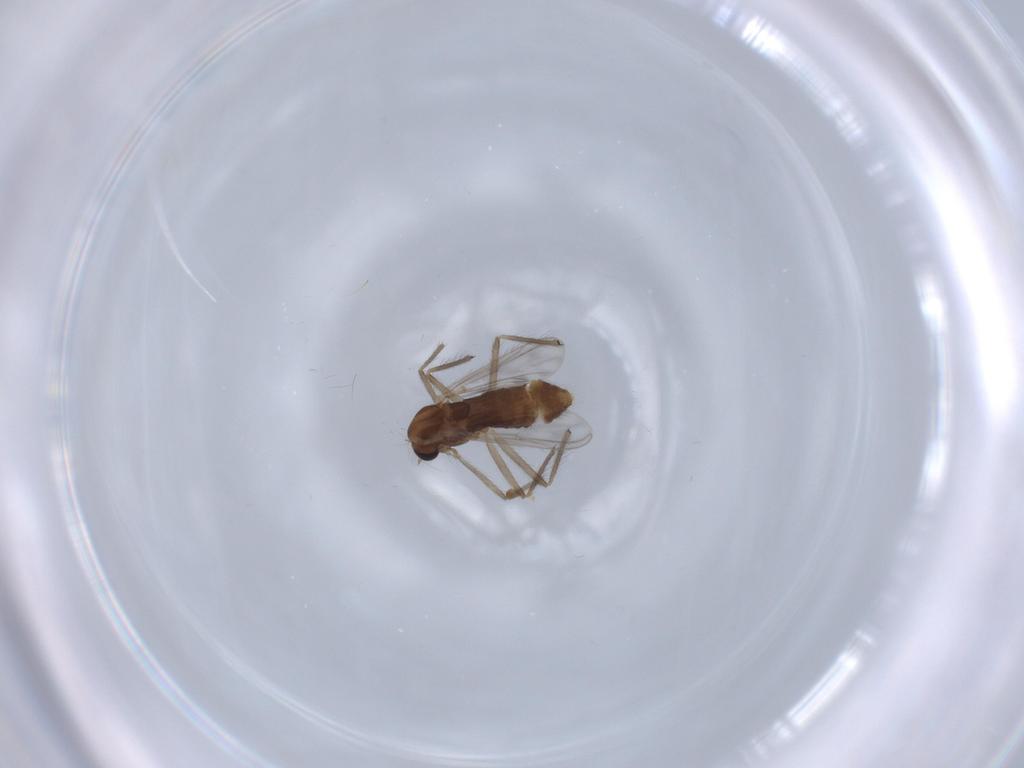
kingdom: Animalia
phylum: Arthropoda
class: Insecta
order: Diptera
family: Chironomidae
